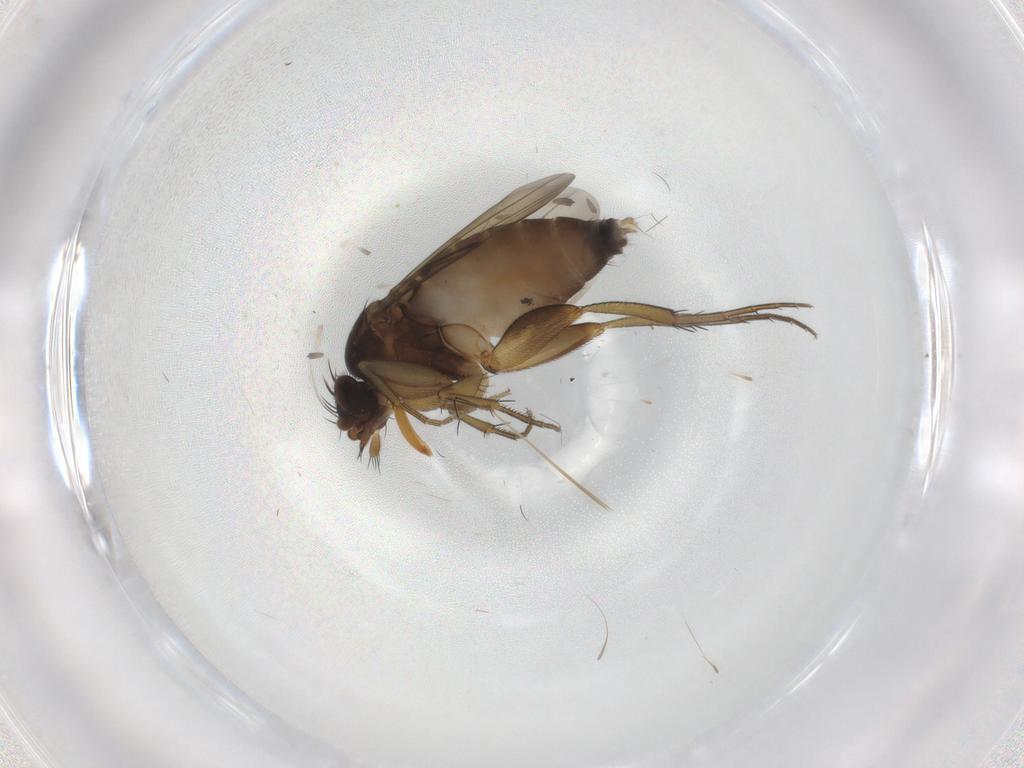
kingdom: Animalia
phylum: Arthropoda
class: Insecta
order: Diptera
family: Phoridae
